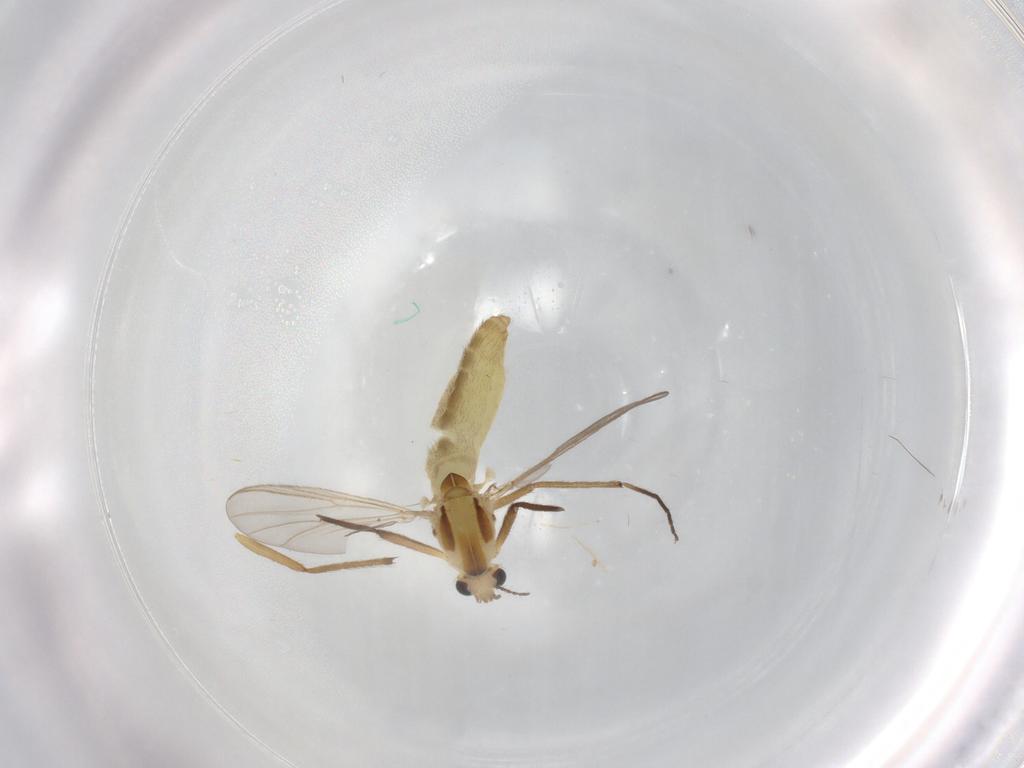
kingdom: Animalia
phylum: Arthropoda
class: Insecta
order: Diptera
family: Chironomidae
